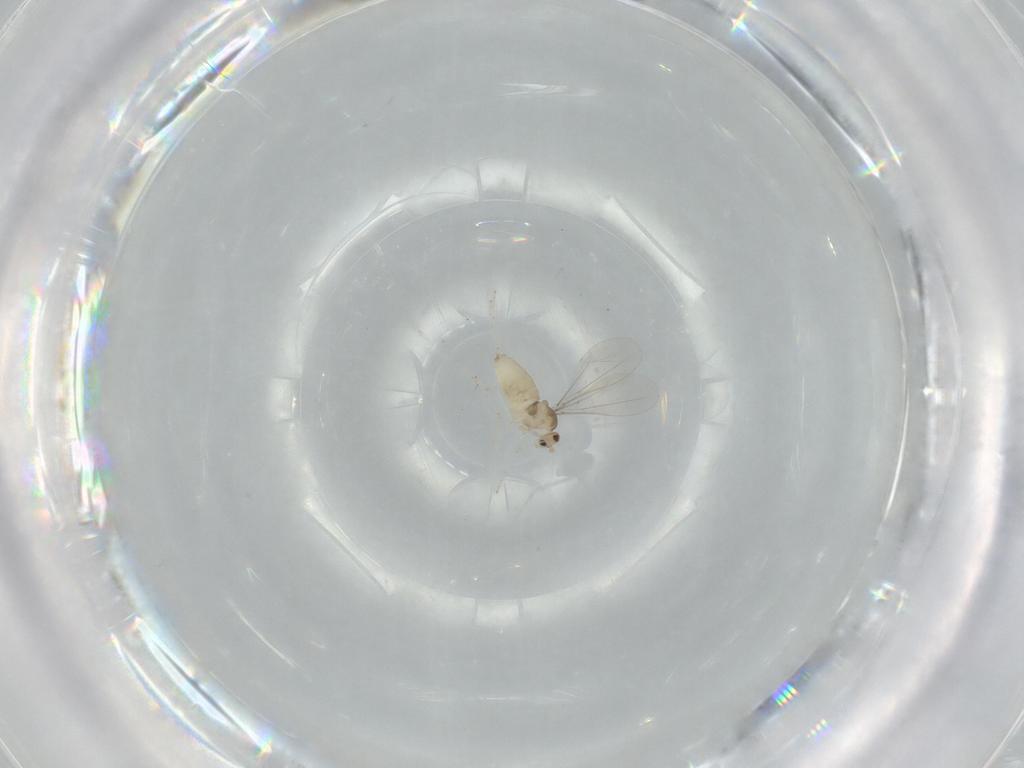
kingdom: Animalia
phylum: Arthropoda
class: Insecta
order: Diptera
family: Cecidomyiidae
